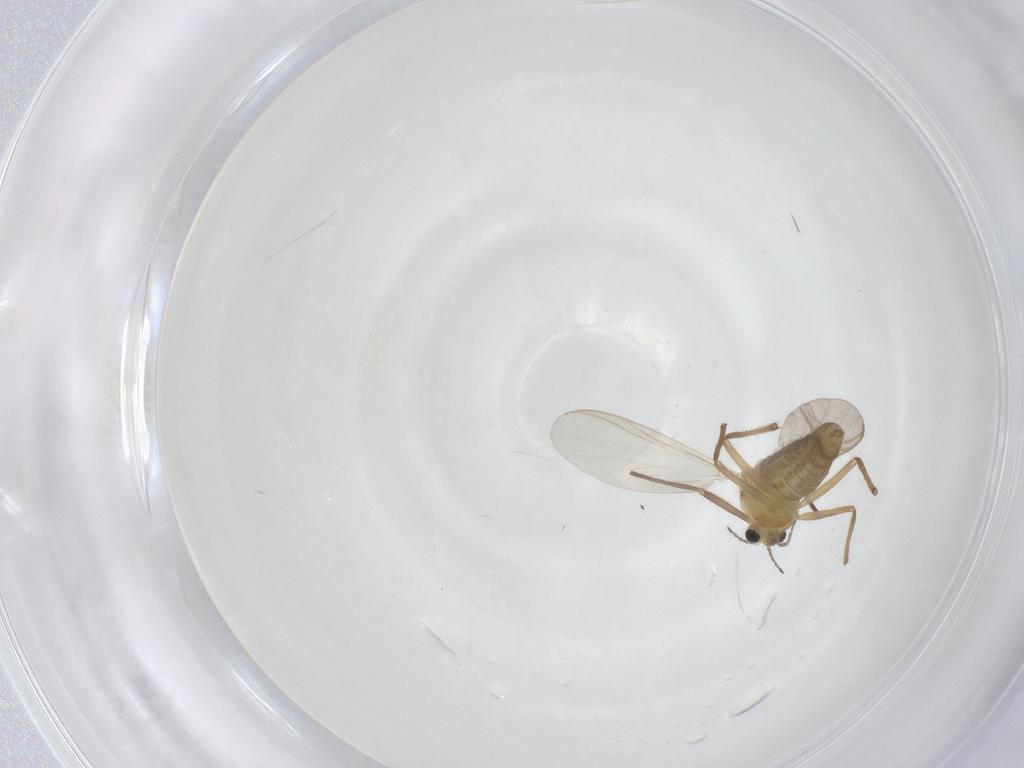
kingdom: Animalia
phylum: Arthropoda
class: Insecta
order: Diptera
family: Chironomidae
